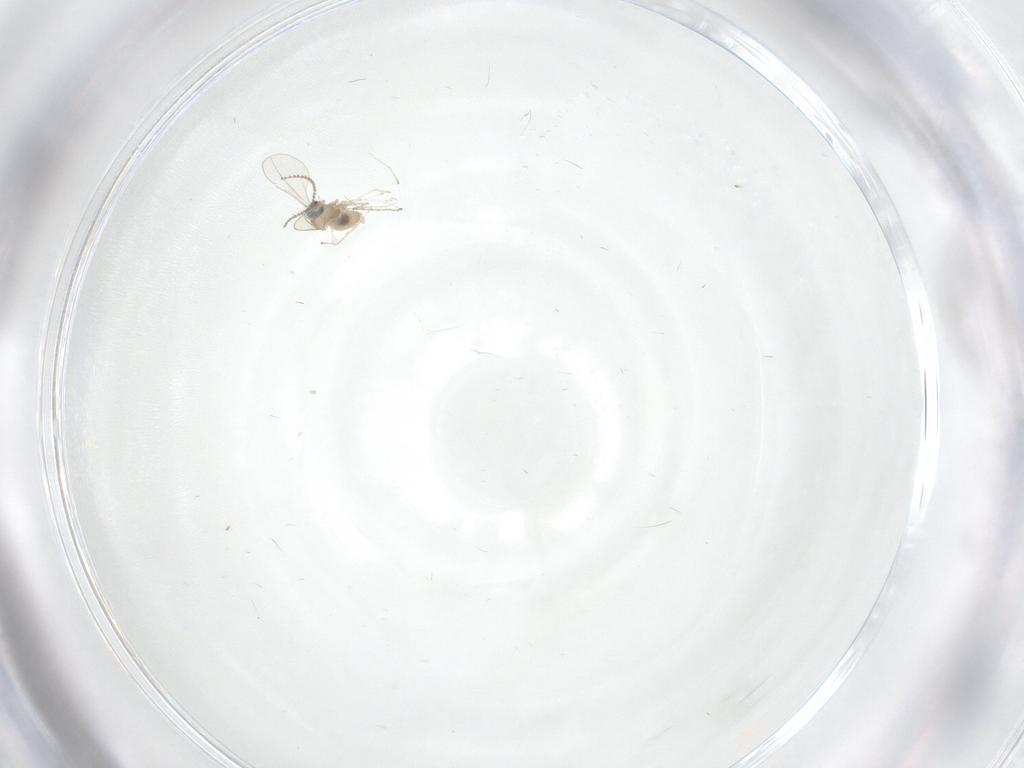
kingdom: Animalia
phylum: Arthropoda
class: Insecta
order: Diptera
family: Cecidomyiidae
